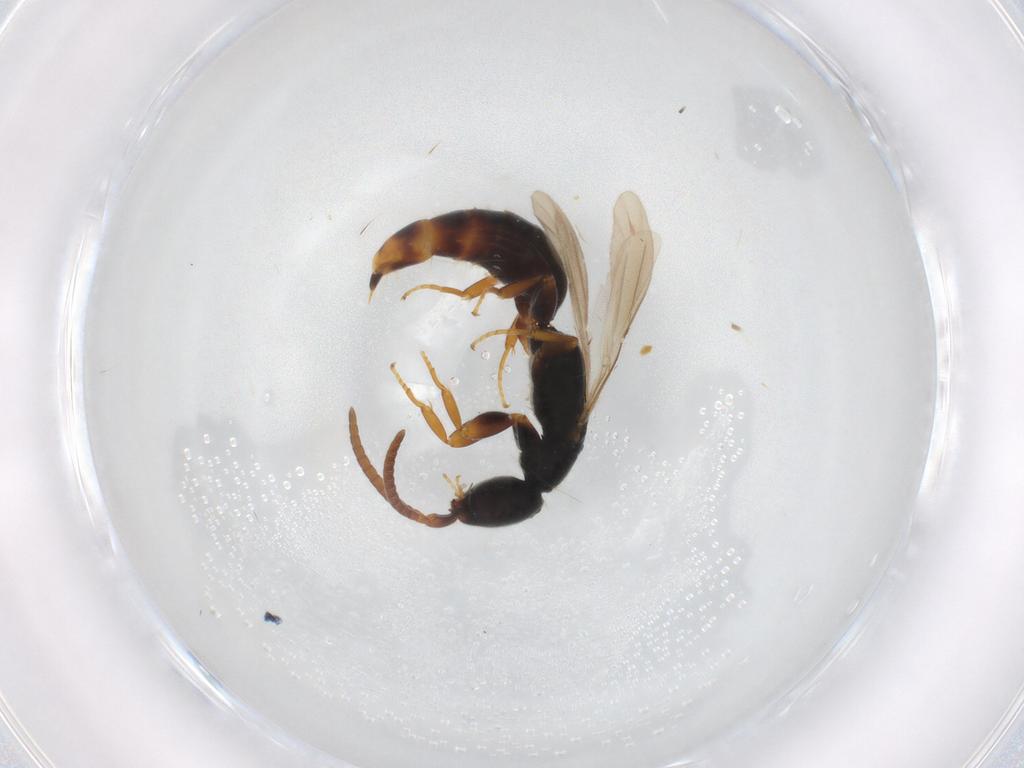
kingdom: Animalia
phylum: Arthropoda
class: Insecta
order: Hymenoptera
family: Bethylidae
